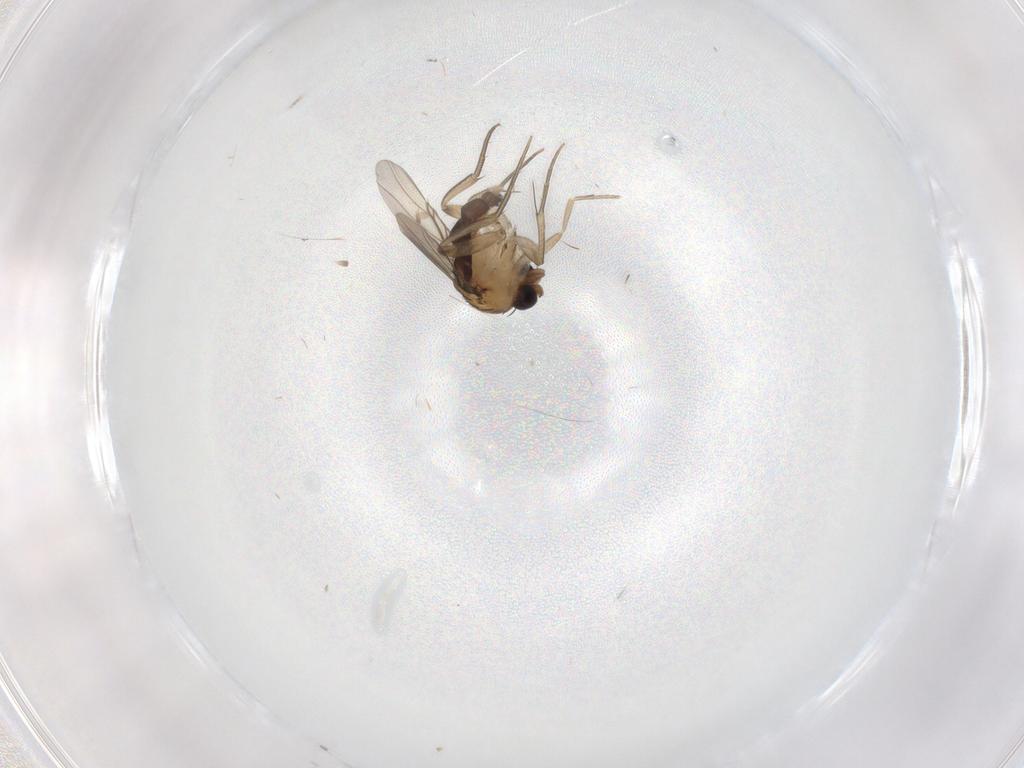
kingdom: Animalia
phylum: Arthropoda
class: Insecta
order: Diptera
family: Phoridae
